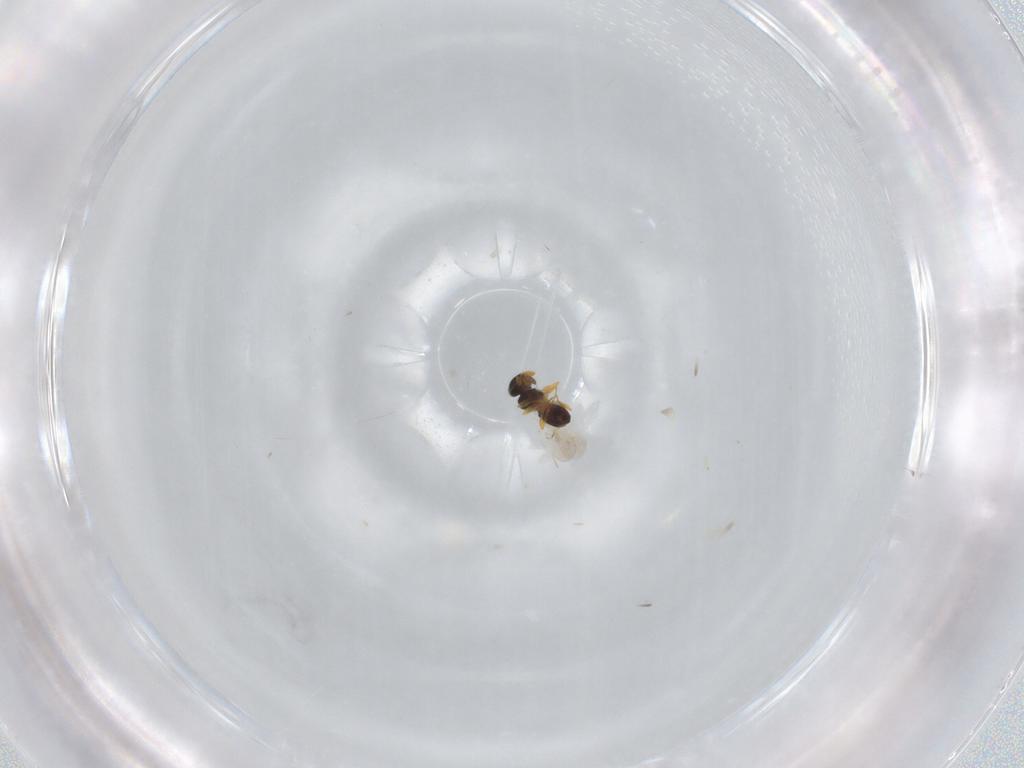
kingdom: Animalia
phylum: Arthropoda
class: Insecta
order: Hymenoptera
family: Platygastridae
